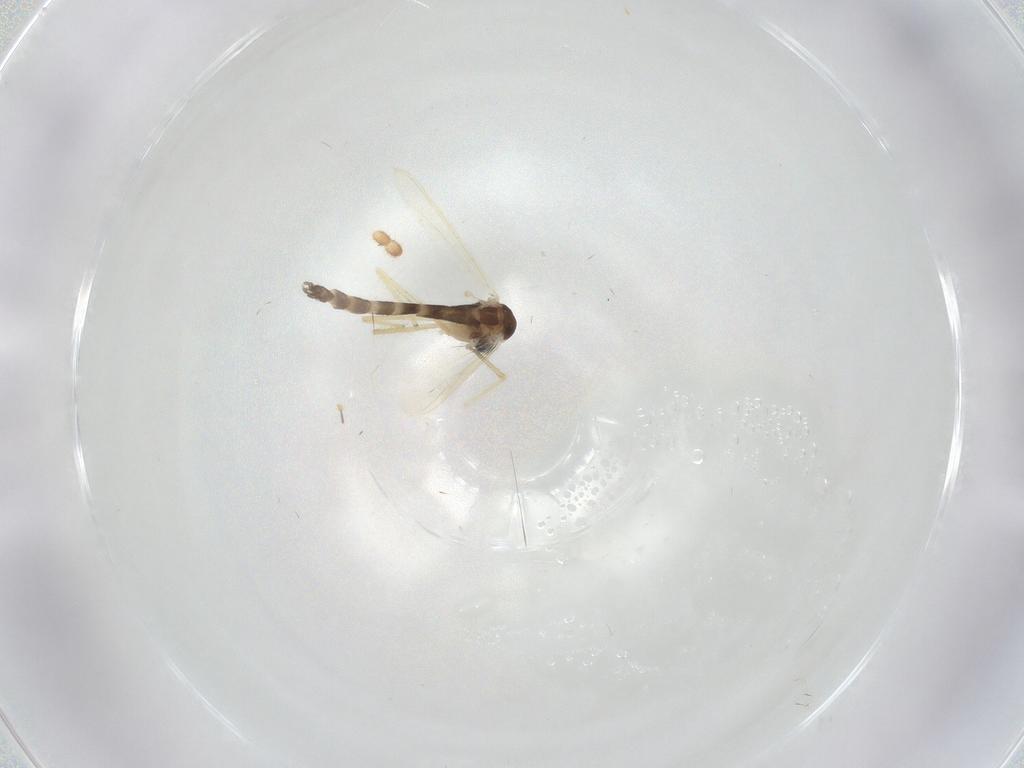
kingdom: Animalia
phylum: Arthropoda
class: Insecta
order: Diptera
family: Chironomidae
